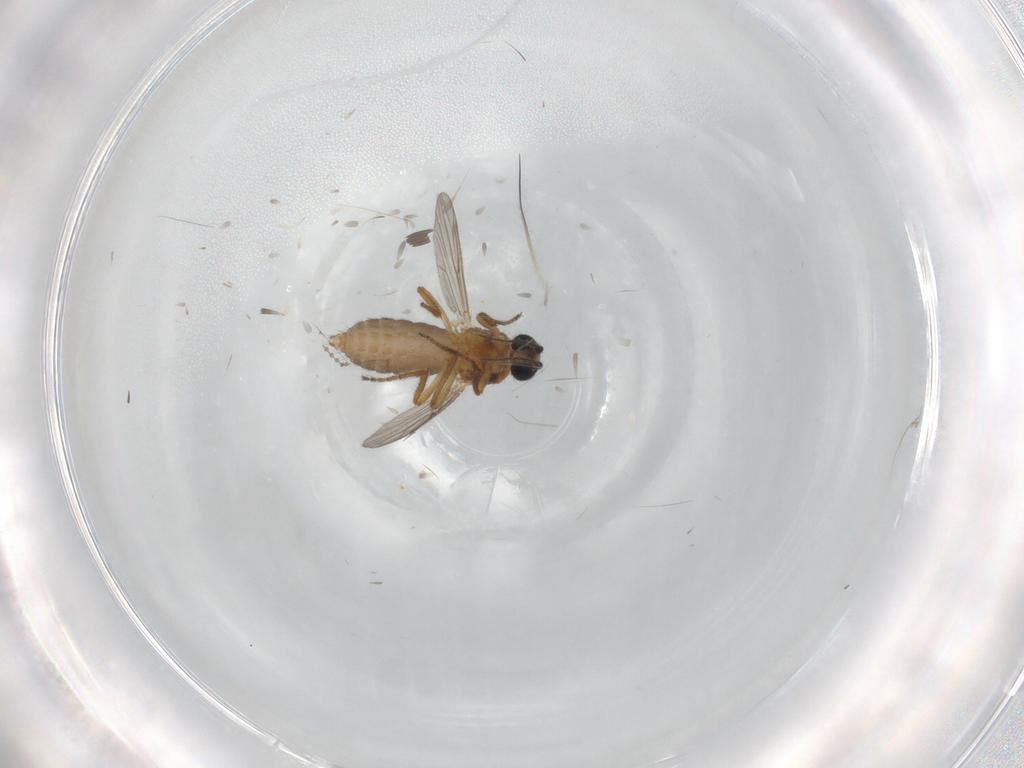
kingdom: Animalia
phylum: Arthropoda
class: Insecta
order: Diptera
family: Ceratopogonidae
